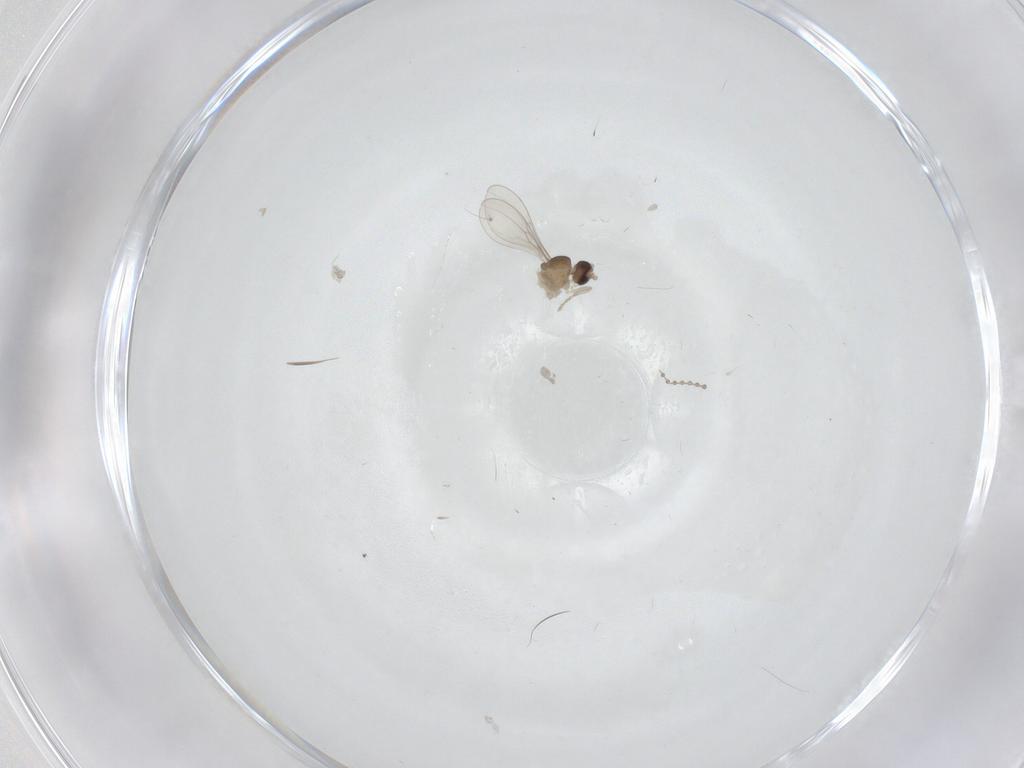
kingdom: Animalia
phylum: Arthropoda
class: Insecta
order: Diptera
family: Cecidomyiidae
